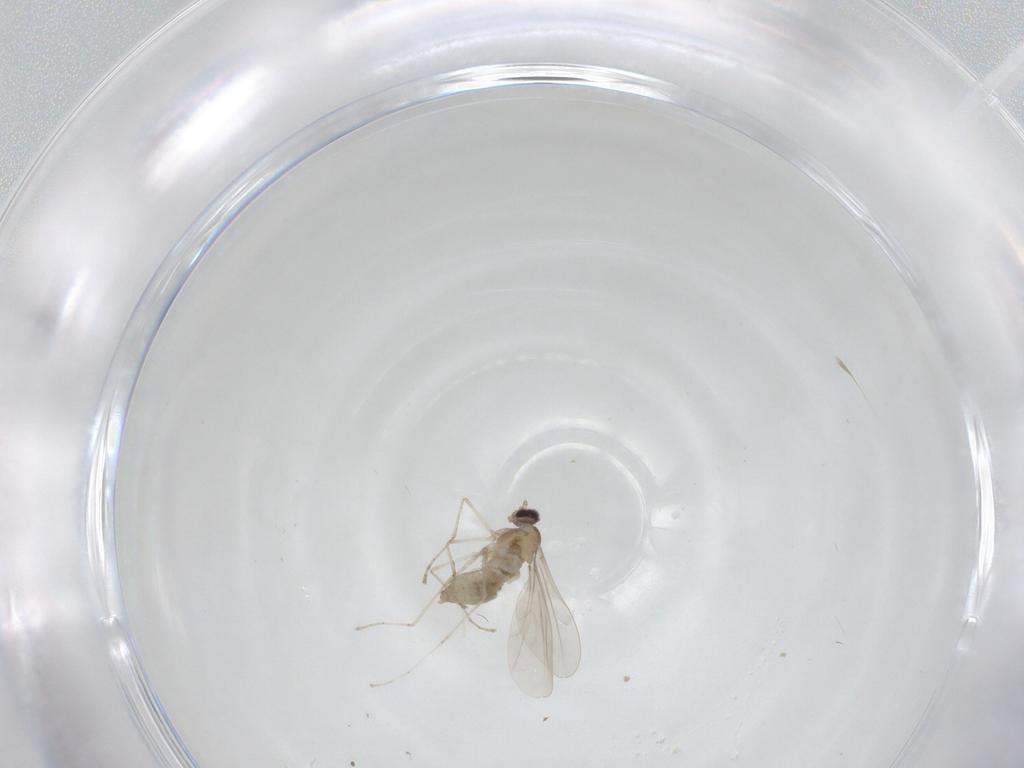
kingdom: Animalia
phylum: Arthropoda
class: Insecta
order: Diptera
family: Cecidomyiidae
